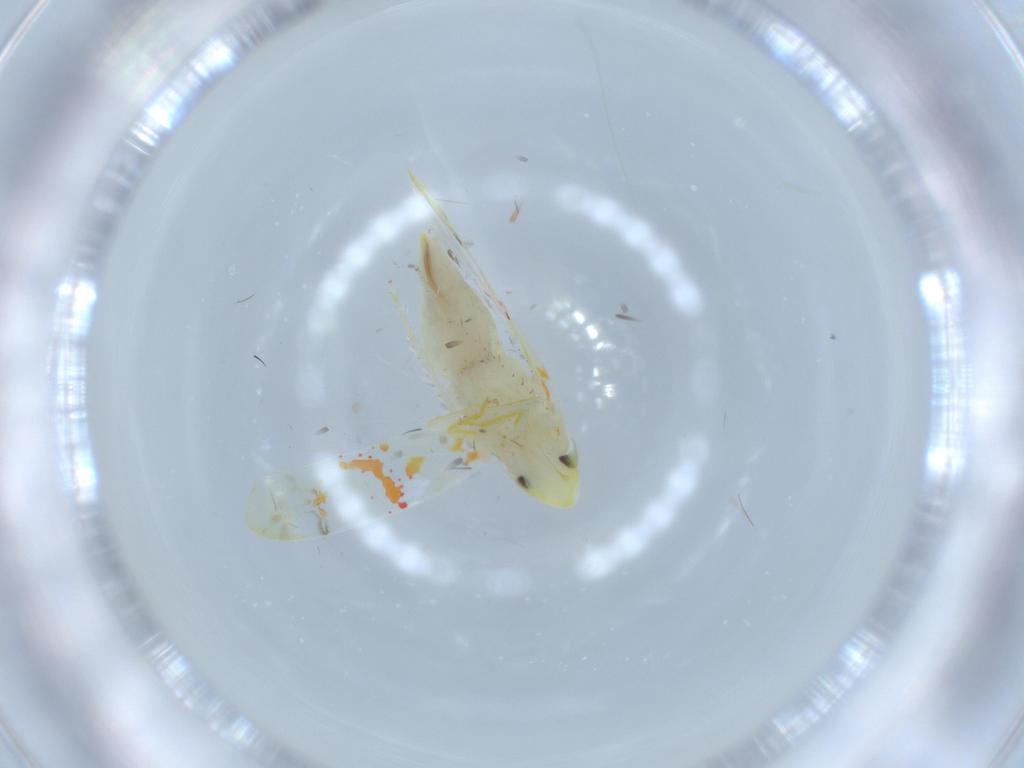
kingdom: Animalia
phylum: Arthropoda
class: Insecta
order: Hemiptera
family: Cicadellidae
